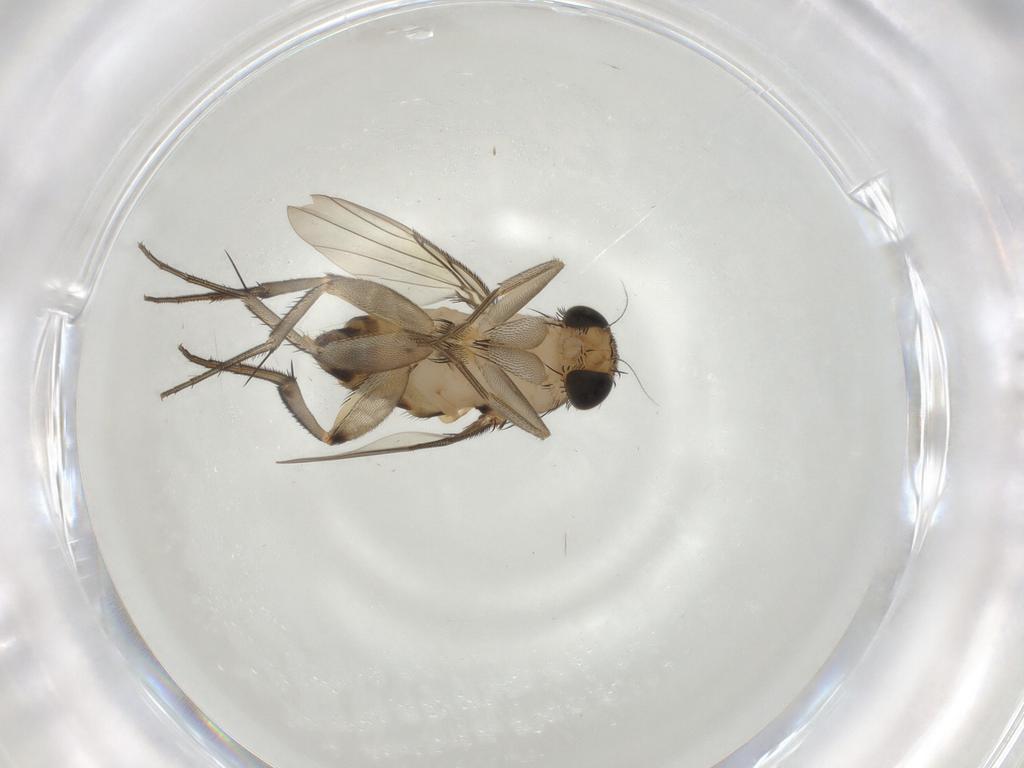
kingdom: Animalia
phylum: Arthropoda
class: Insecta
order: Diptera
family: Phoridae
